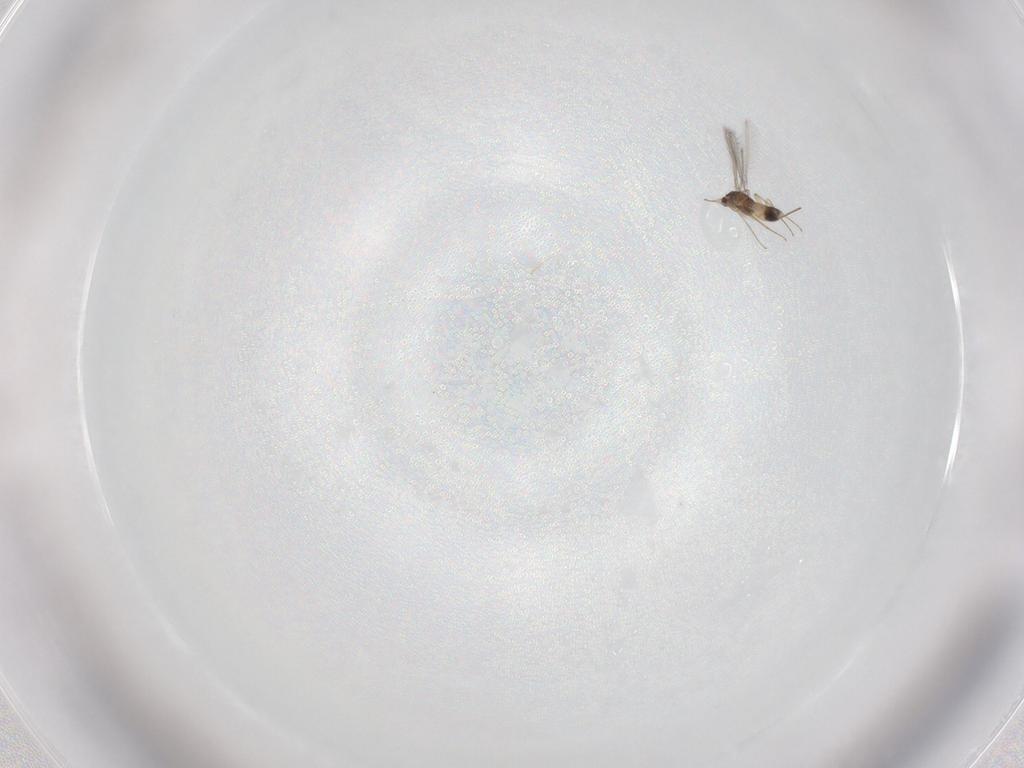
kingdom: Animalia
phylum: Arthropoda
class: Insecta
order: Hymenoptera
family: Mymaridae
